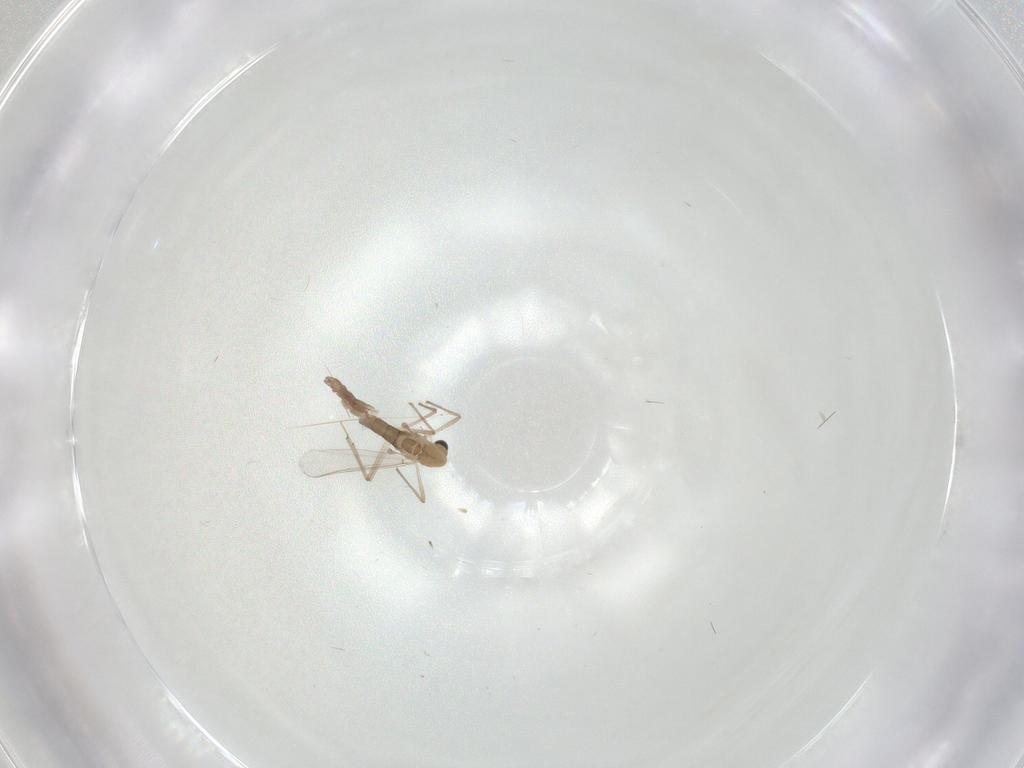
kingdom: Animalia
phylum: Arthropoda
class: Insecta
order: Diptera
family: Chironomidae
